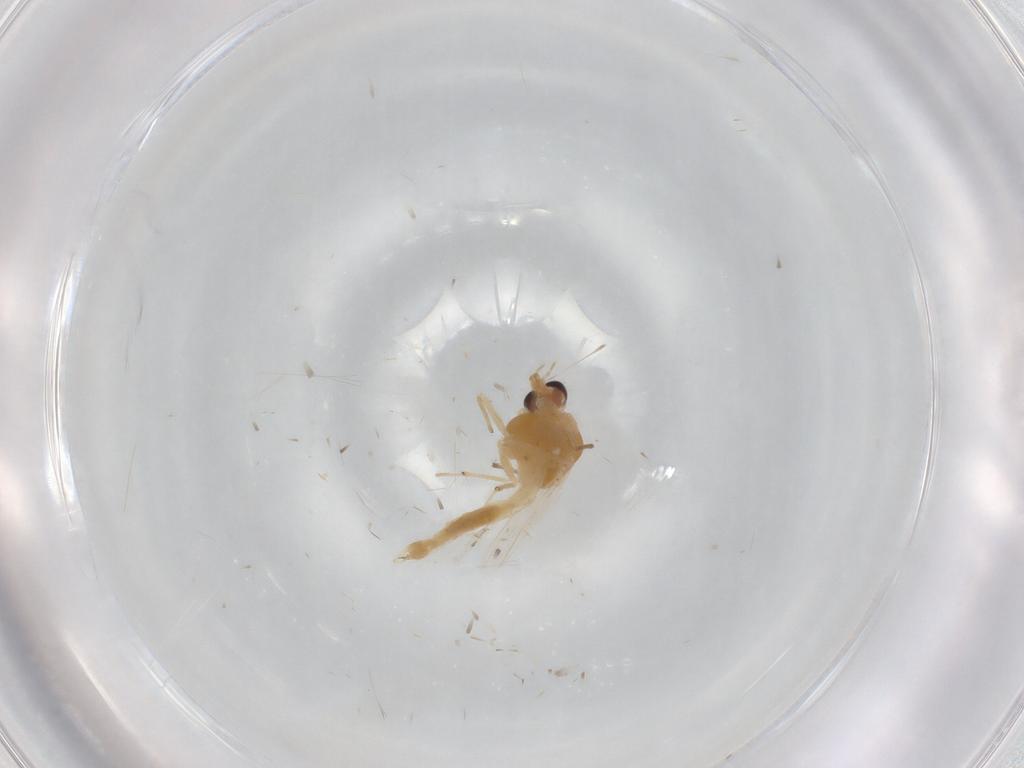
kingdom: Animalia
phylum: Arthropoda
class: Insecta
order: Diptera
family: Chironomidae
